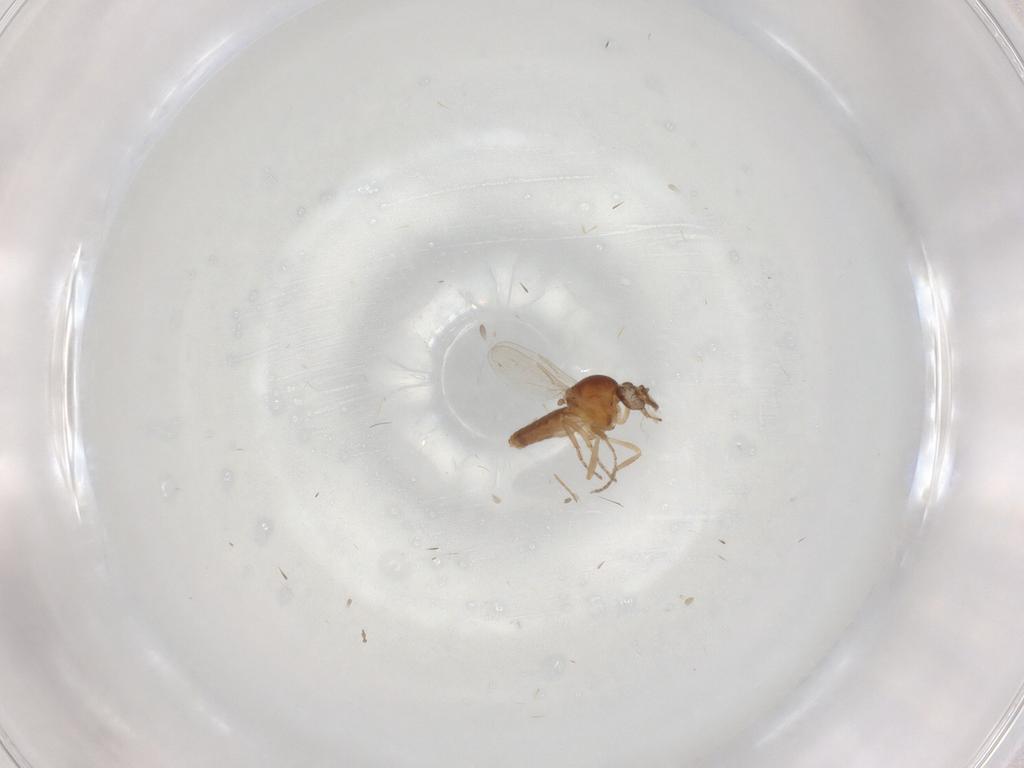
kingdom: Animalia
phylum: Arthropoda
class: Insecta
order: Diptera
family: Ceratopogonidae
